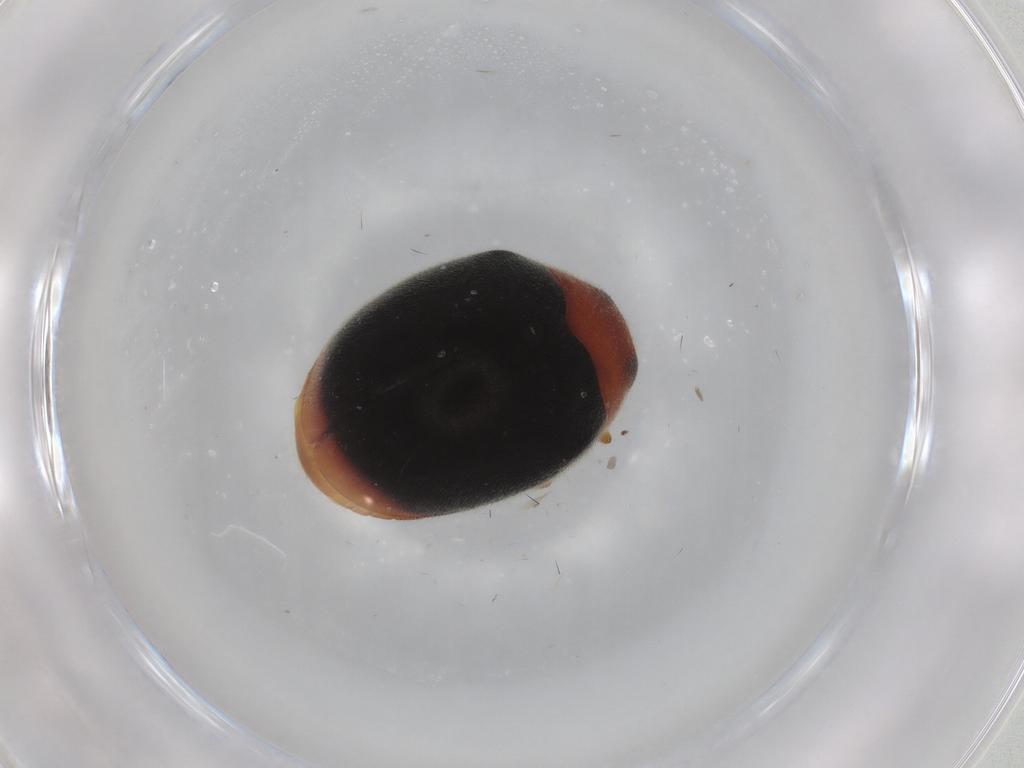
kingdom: Animalia
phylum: Arthropoda
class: Insecta
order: Coleoptera
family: Coccinellidae
